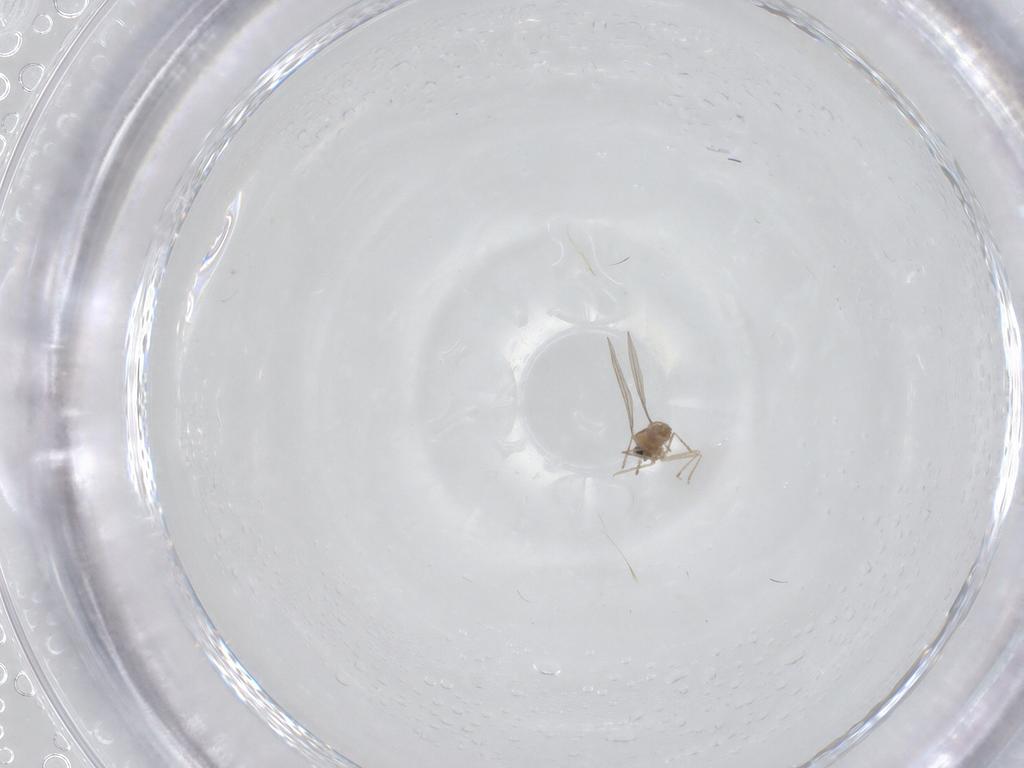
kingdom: Animalia
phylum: Arthropoda
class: Insecta
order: Diptera
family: Cecidomyiidae
